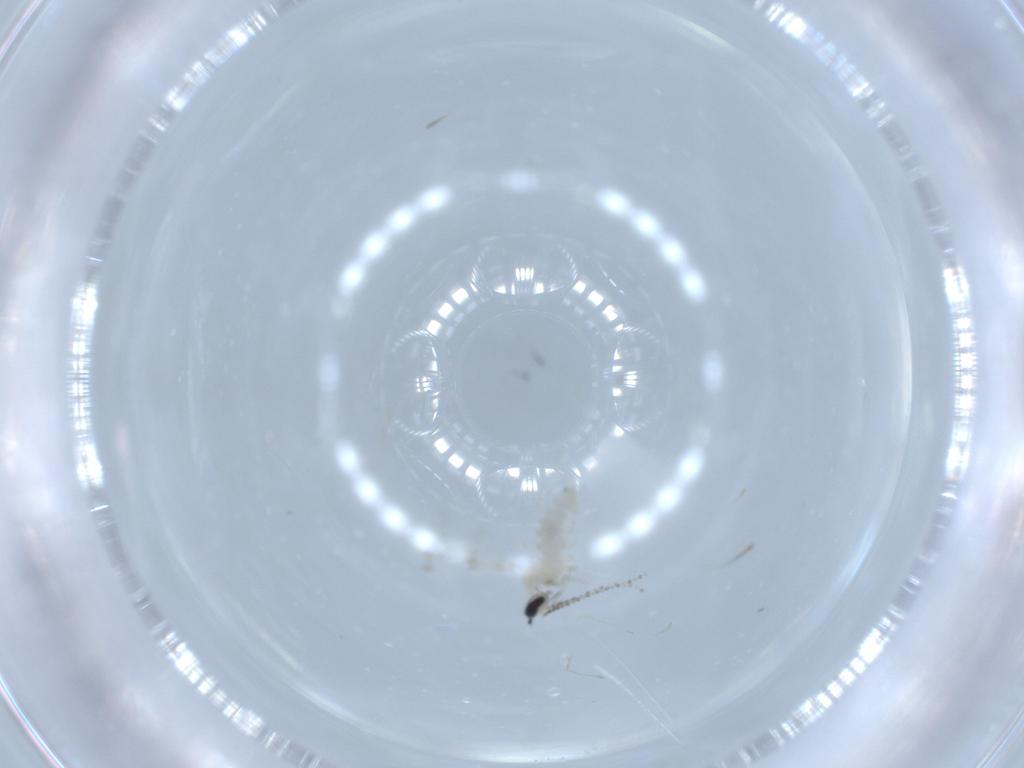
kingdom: Animalia
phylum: Arthropoda
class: Insecta
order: Diptera
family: Cecidomyiidae
